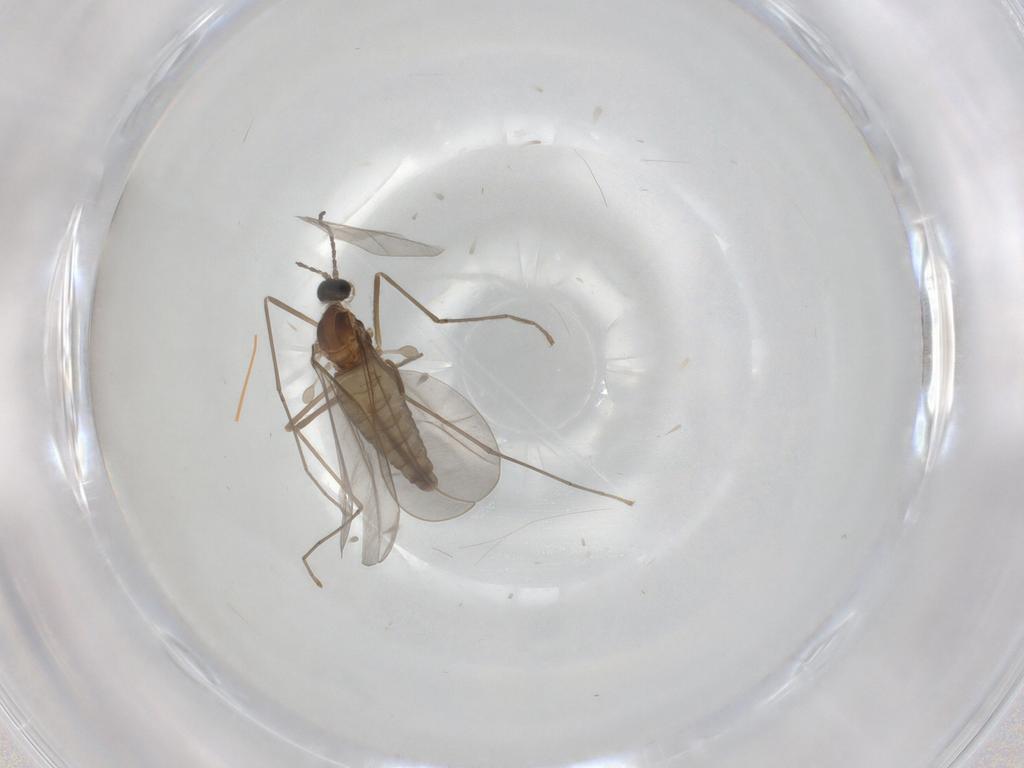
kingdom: Animalia
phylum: Arthropoda
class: Insecta
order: Diptera
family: Cecidomyiidae
